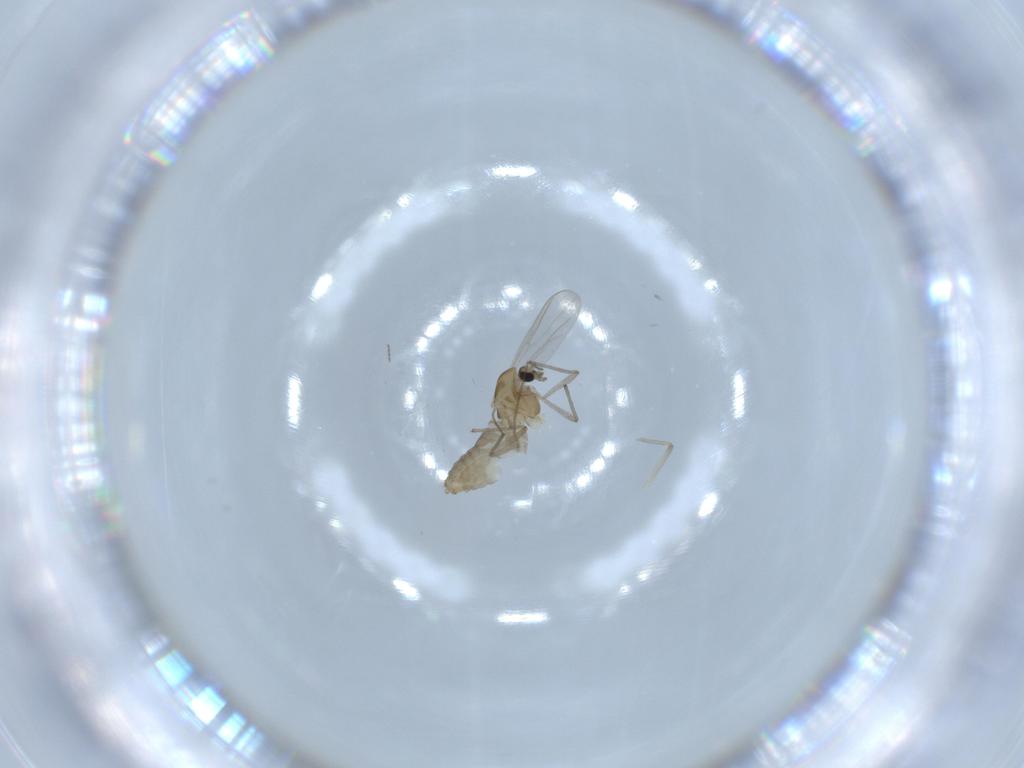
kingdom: Animalia
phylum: Arthropoda
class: Insecta
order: Diptera
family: Chironomidae
